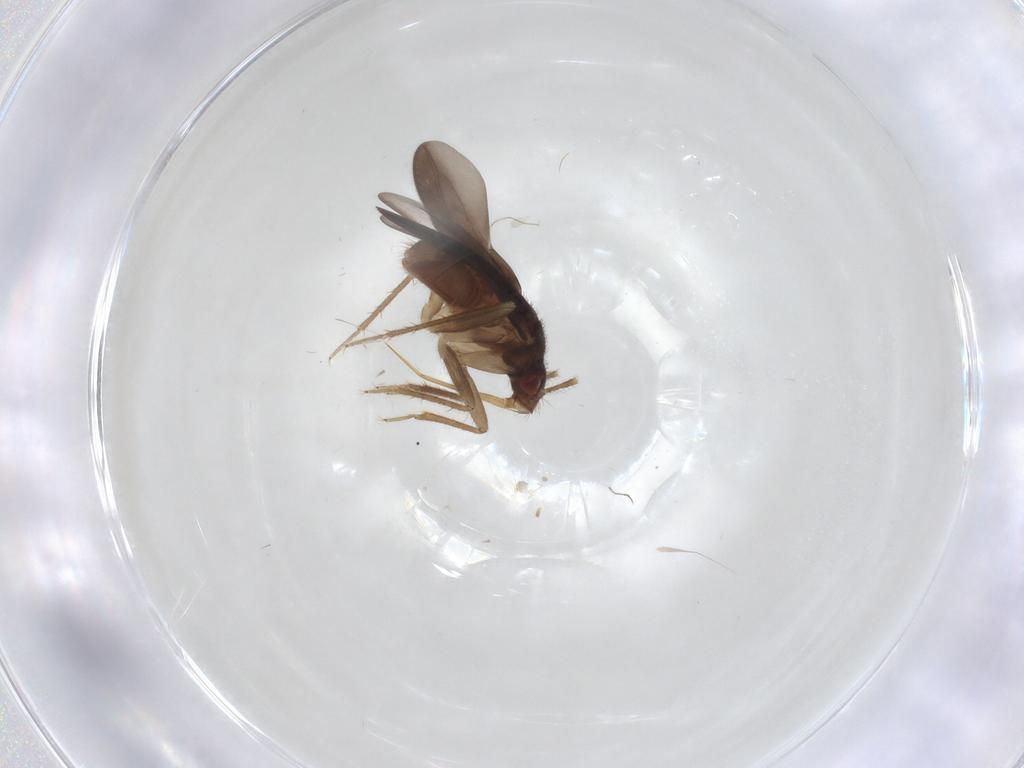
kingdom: Animalia
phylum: Arthropoda
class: Insecta
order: Hemiptera
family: Ceratocombidae
